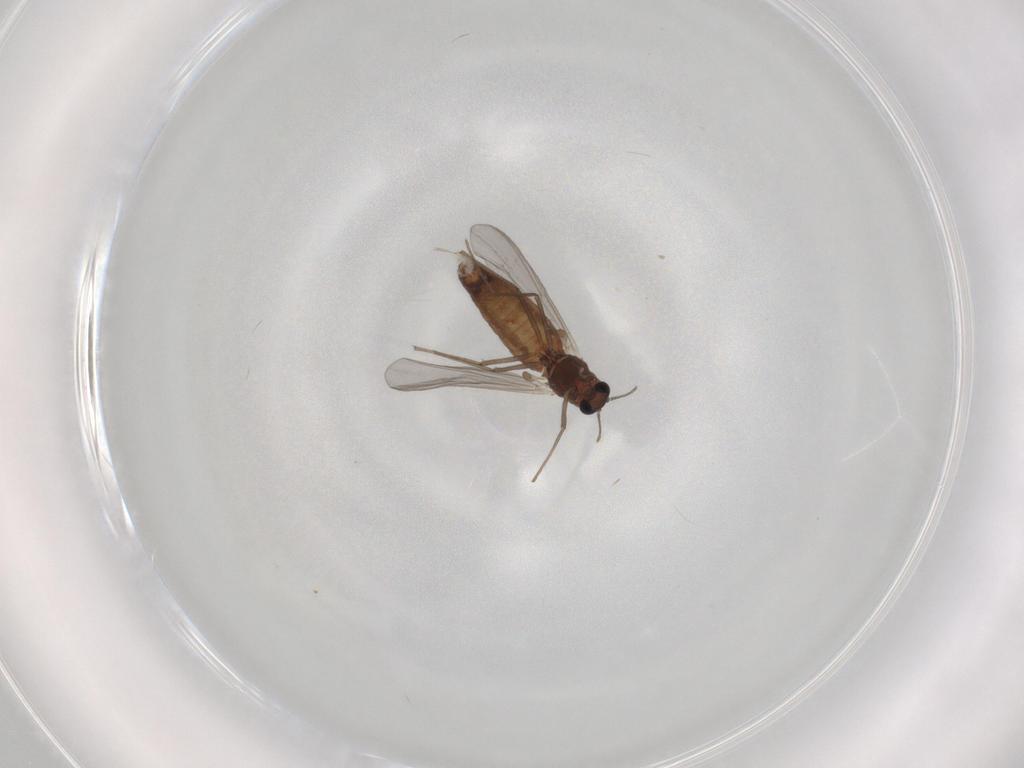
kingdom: Animalia
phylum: Arthropoda
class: Insecta
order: Diptera
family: Chironomidae
